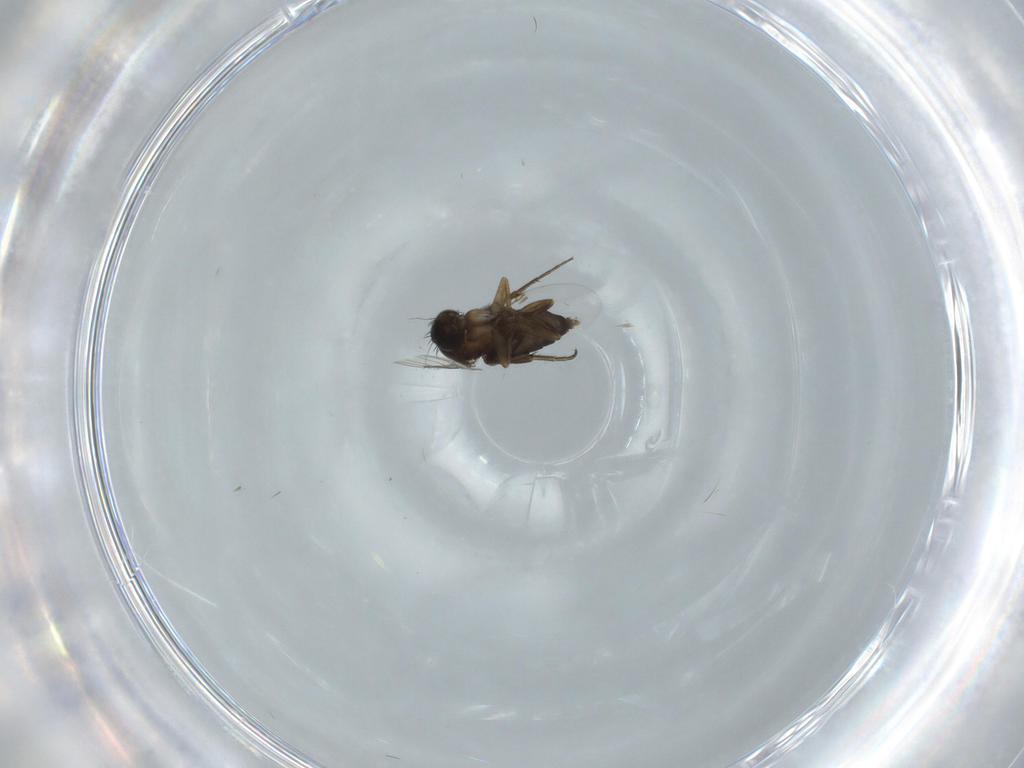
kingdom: Animalia
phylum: Arthropoda
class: Insecta
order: Diptera
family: Phoridae
